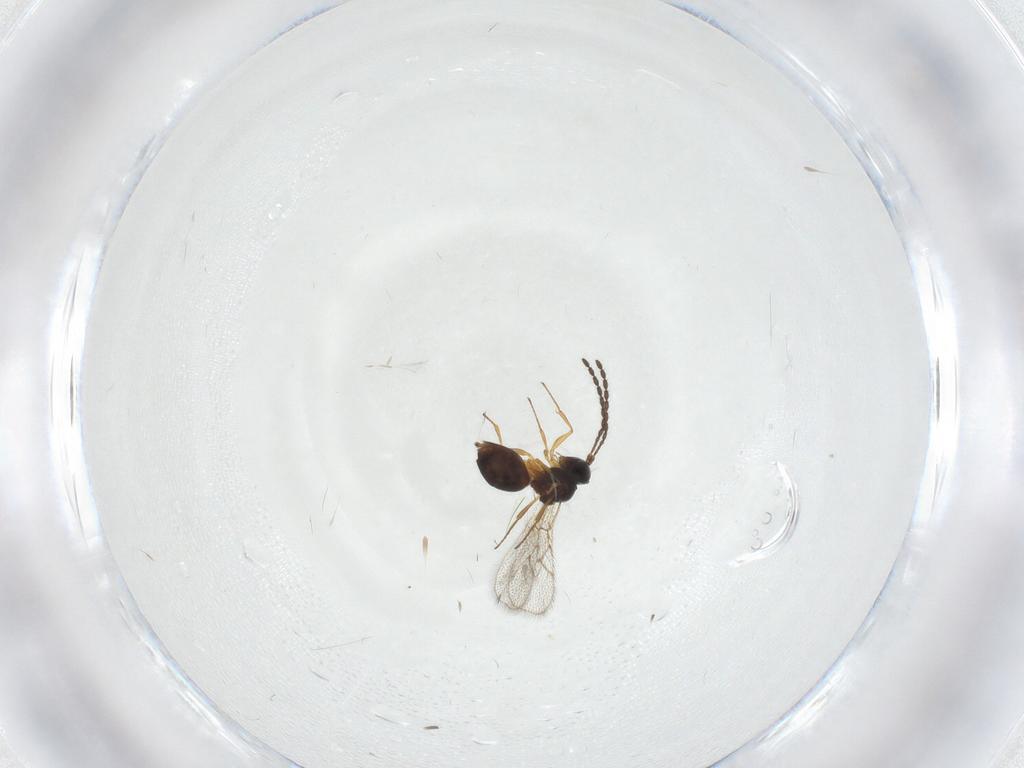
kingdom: Animalia
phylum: Arthropoda
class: Insecta
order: Hymenoptera
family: Figitidae
